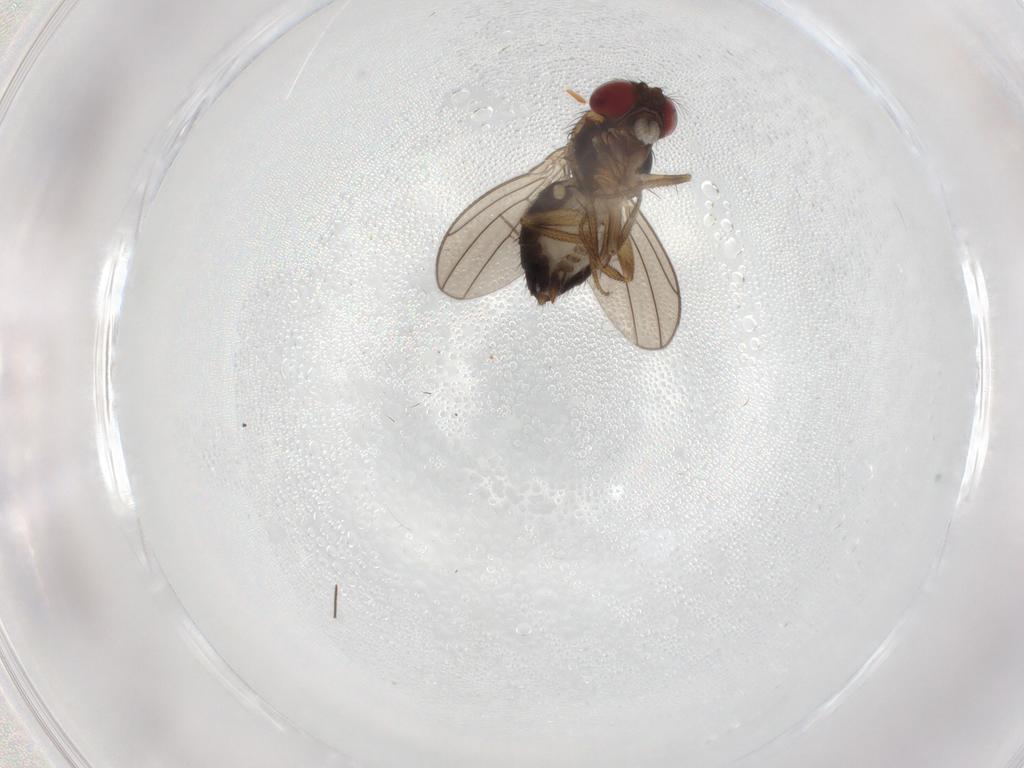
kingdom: Animalia
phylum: Arthropoda
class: Insecta
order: Diptera
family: Drosophilidae
